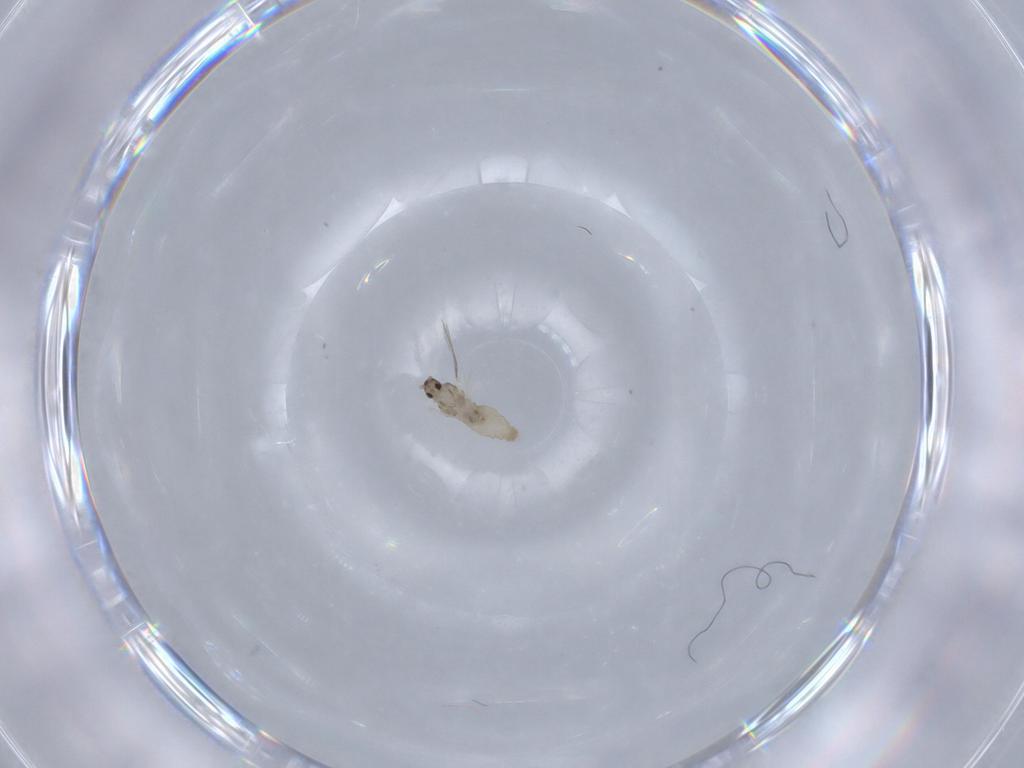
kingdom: Animalia
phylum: Arthropoda
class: Insecta
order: Diptera
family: Cecidomyiidae
